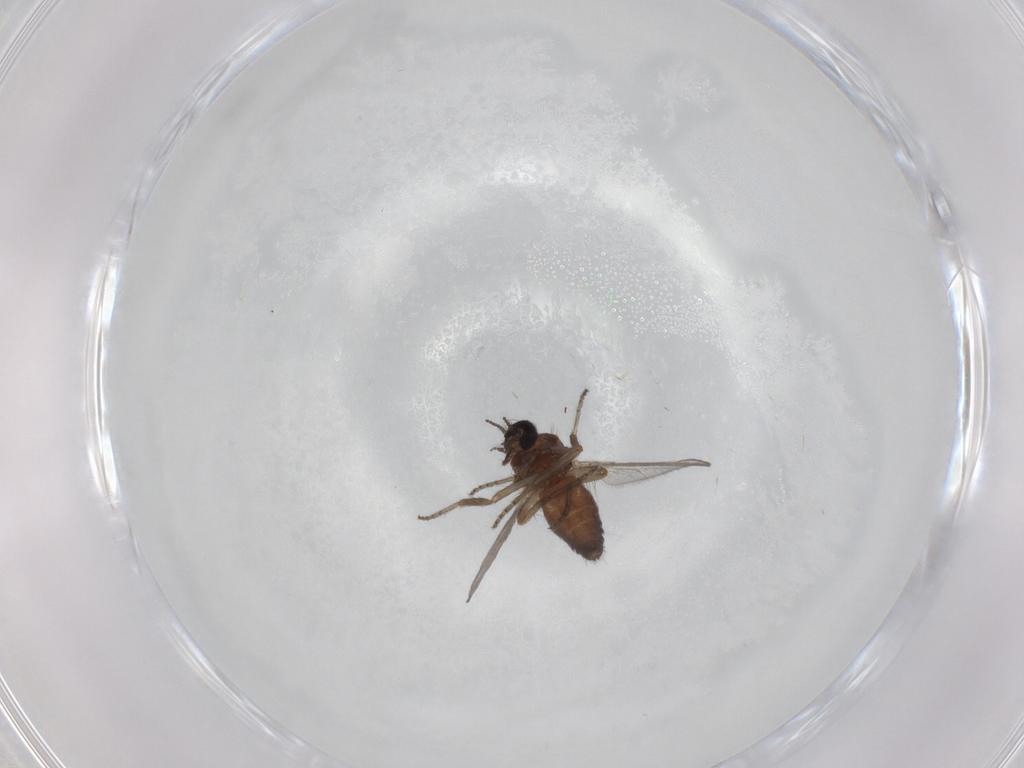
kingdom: Animalia
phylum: Arthropoda
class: Insecta
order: Diptera
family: Ceratopogonidae
